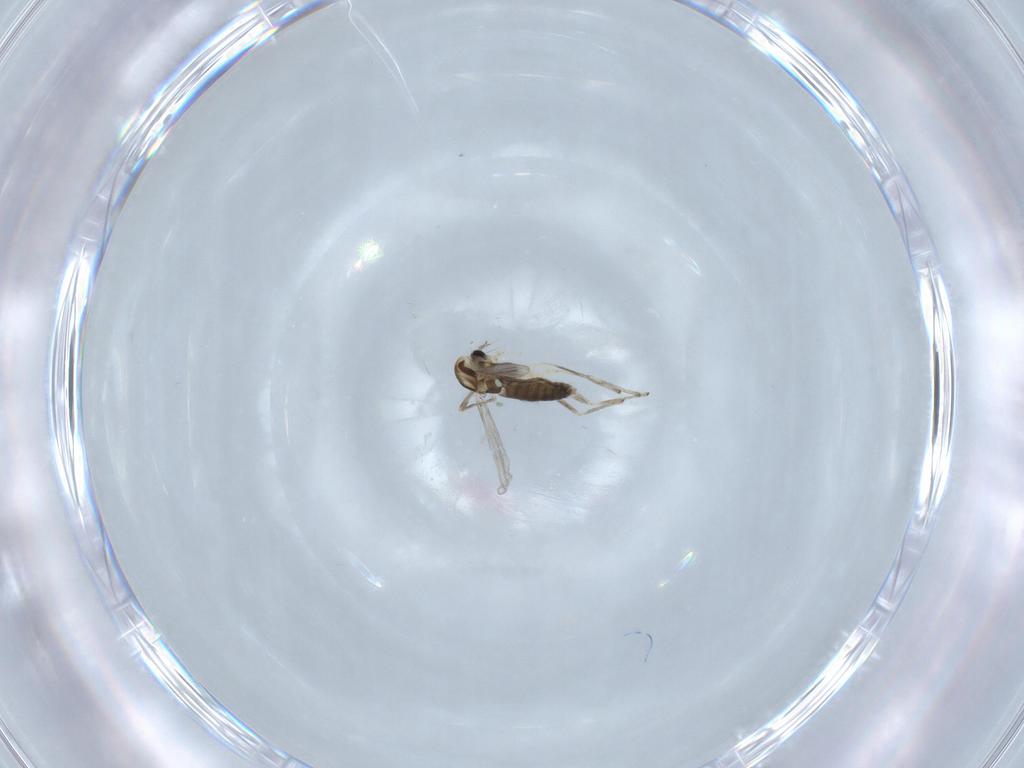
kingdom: Animalia
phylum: Arthropoda
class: Insecta
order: Diptera
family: Chironomidae
